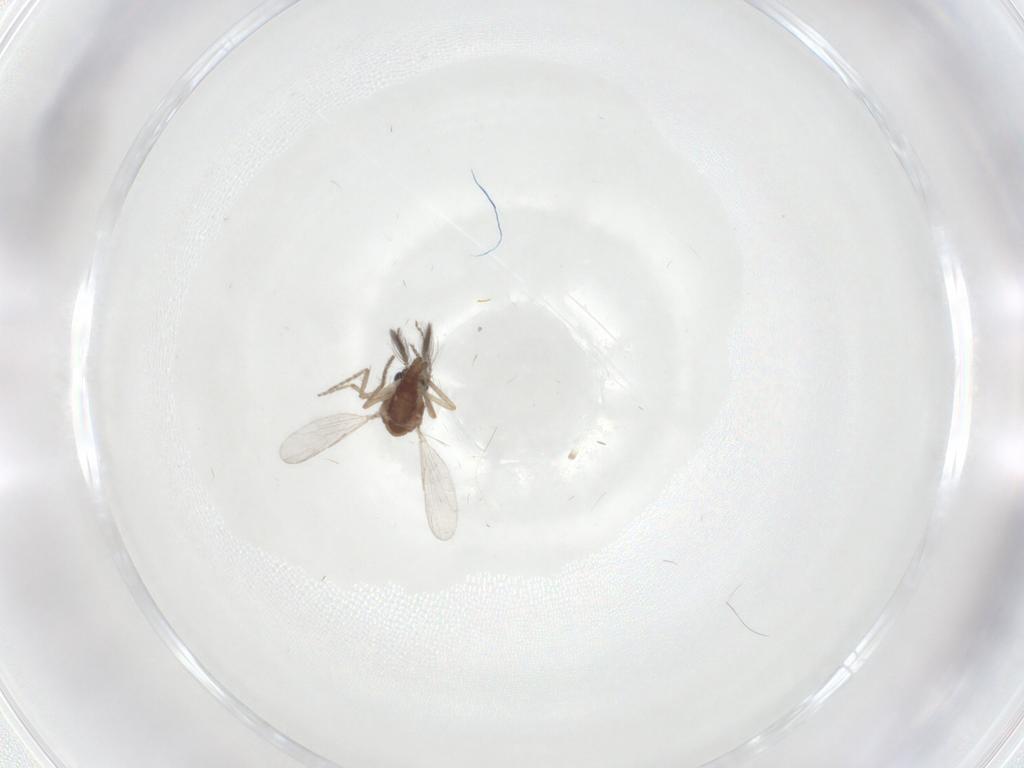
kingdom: Animalia
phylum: Arthropoda
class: Insecta
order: Diptera
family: Ceratopogonidae
